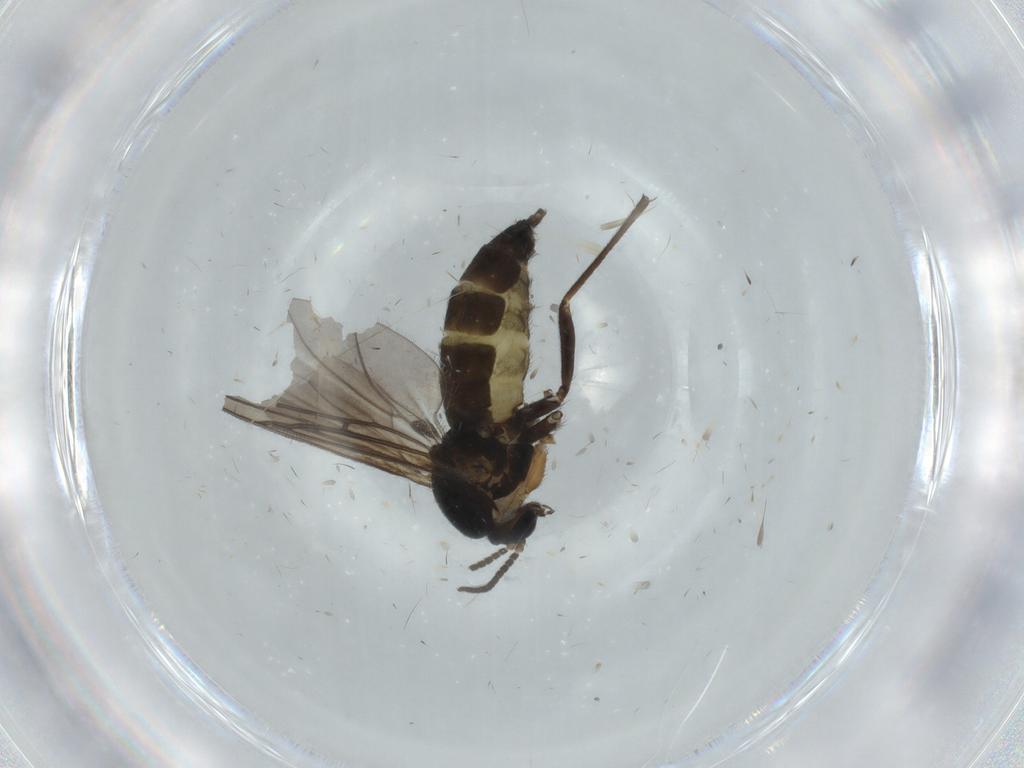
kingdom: Animalia
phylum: Arthropoda
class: Insecta
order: Diptera
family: Sciaridae
